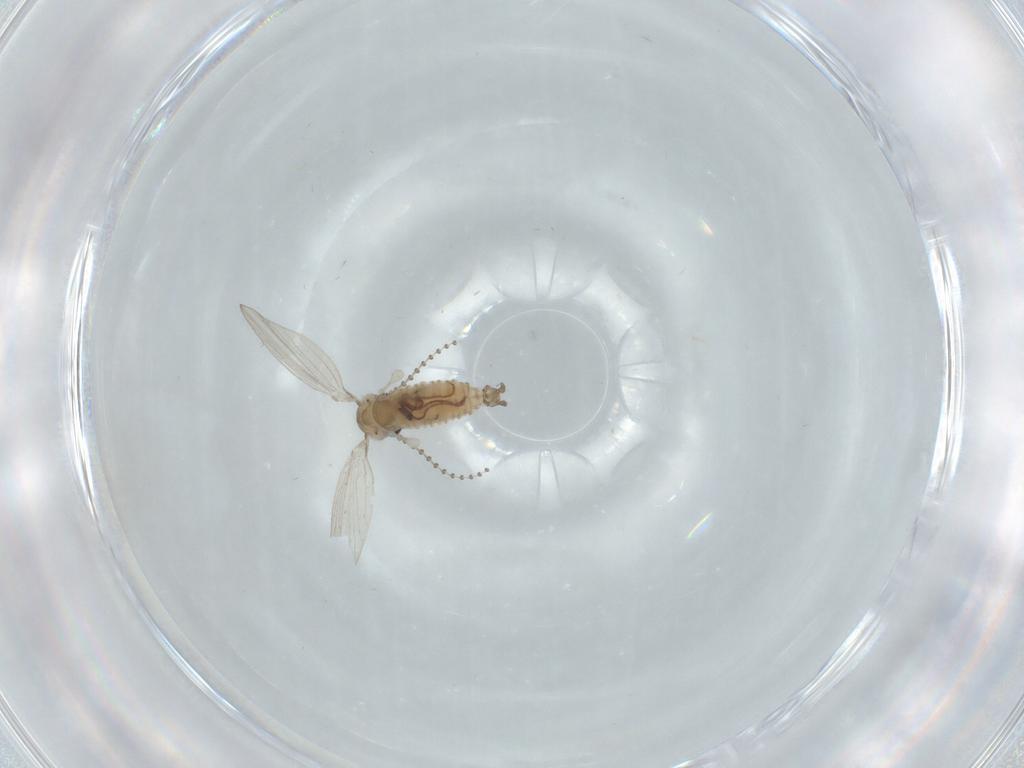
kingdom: Animalia
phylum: Arthropoda
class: Insecta
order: Diptera
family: Psychodidae
